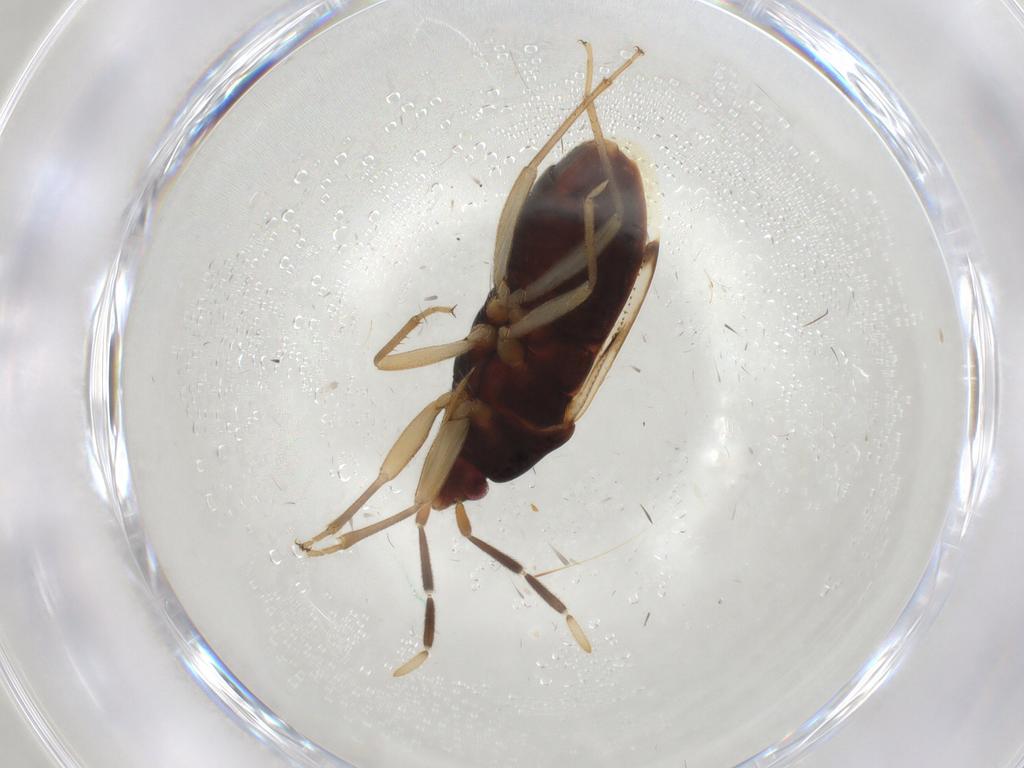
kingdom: Animalia
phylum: Arthropoda
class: Insecta
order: Hemiptera
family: Rhyparochromidae
